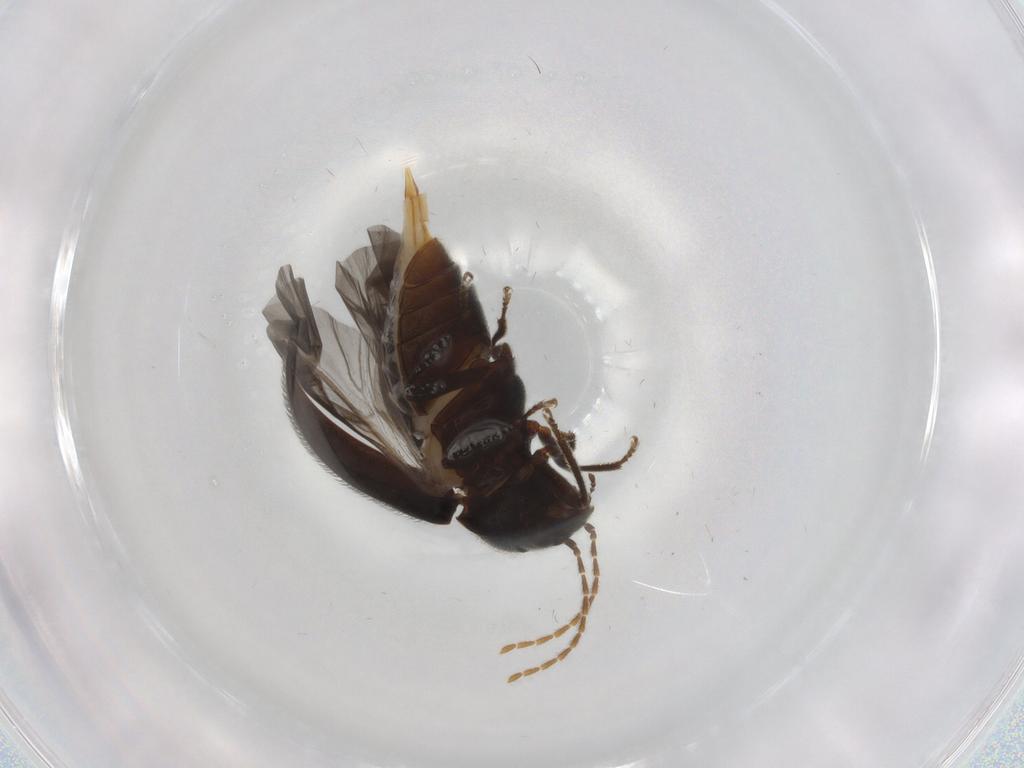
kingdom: Animalia
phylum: Arthropoda
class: Insecta
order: Coleoptera
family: Ptilodactylidae
